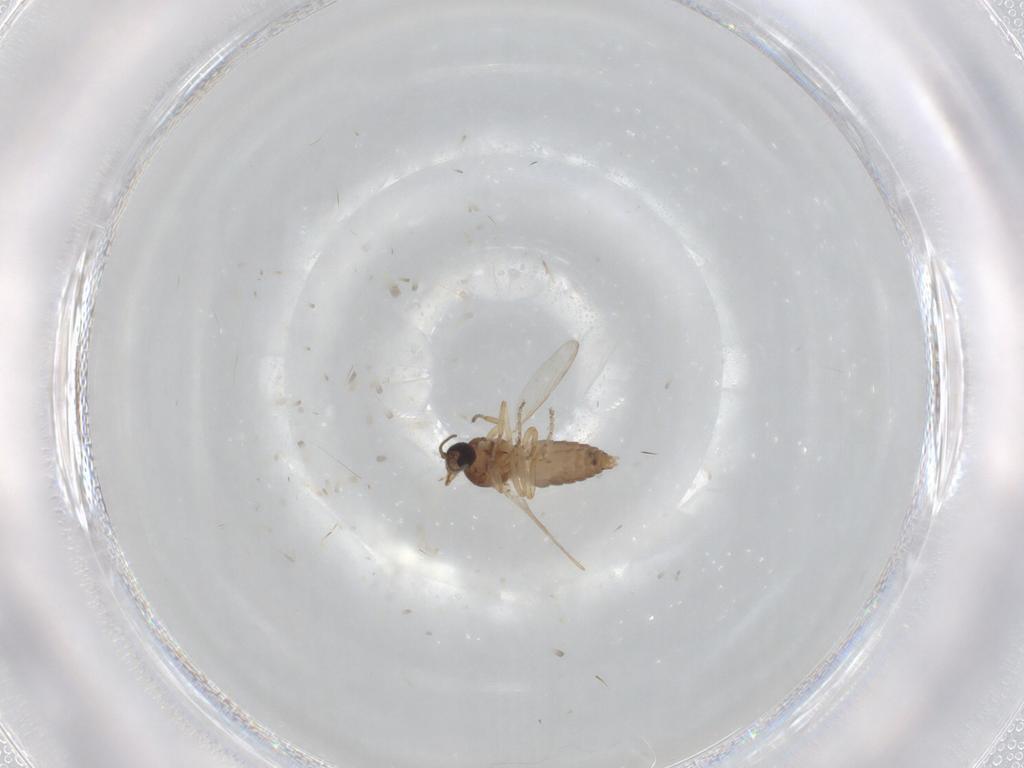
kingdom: Animalia
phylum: Arthropoda
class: Insecta
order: Diptera
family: Ceratopogonidae
